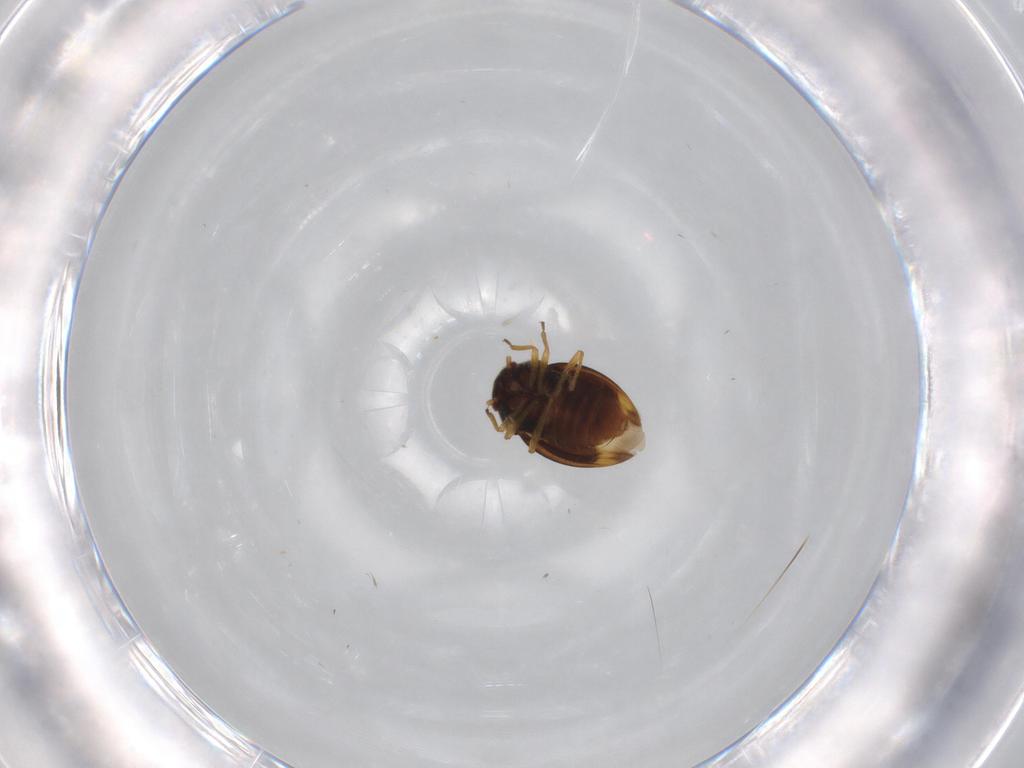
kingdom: Animalia
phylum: Arthropoda
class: Insecta
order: Hemiptera
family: Schizopteridae
